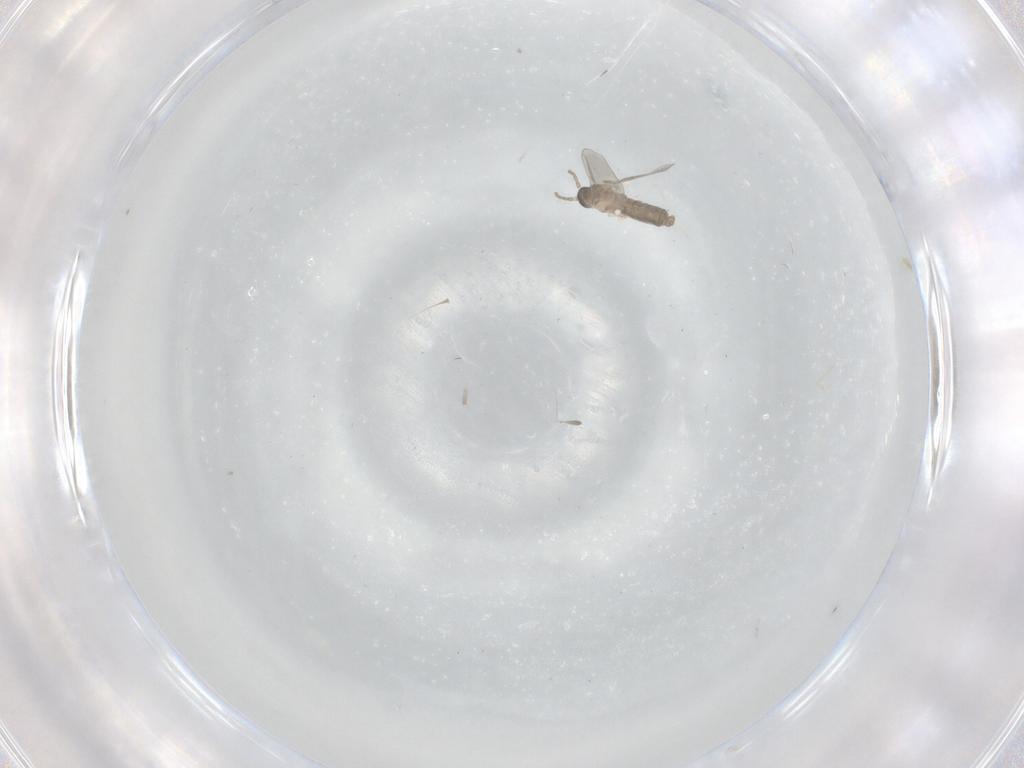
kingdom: Animalia
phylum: Arthropoda
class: Insecta
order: Diptera
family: Cecidomyiidae
